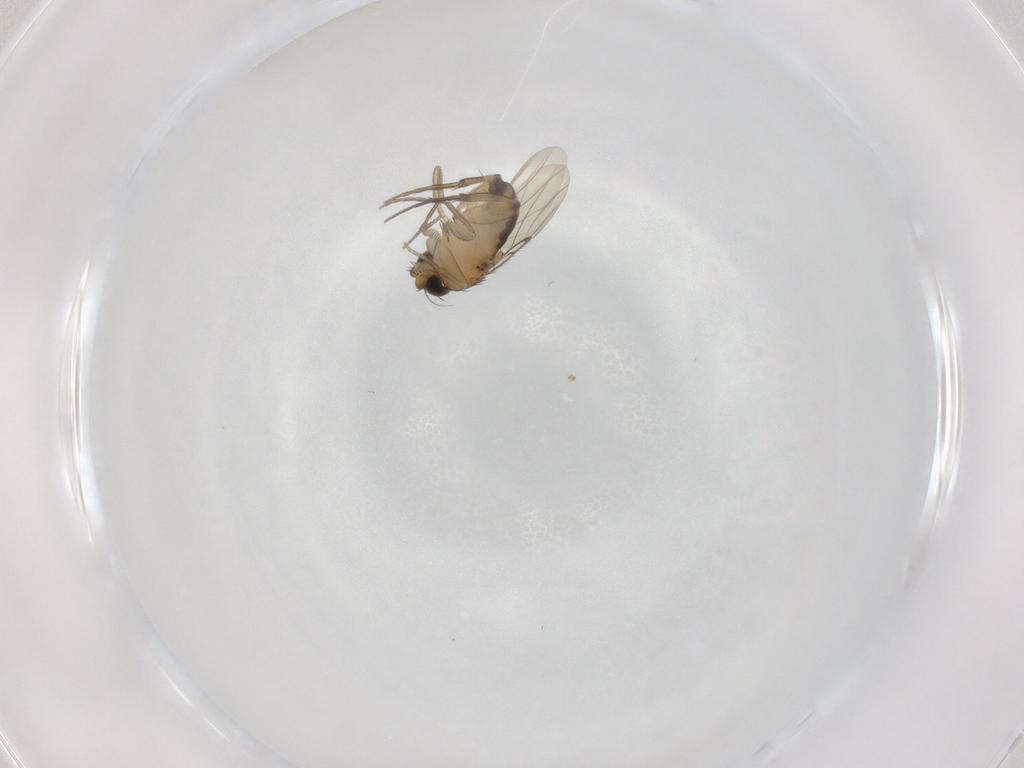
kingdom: Animalia
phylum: Arthropoda
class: Insecta
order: Diptera
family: Phoridae
